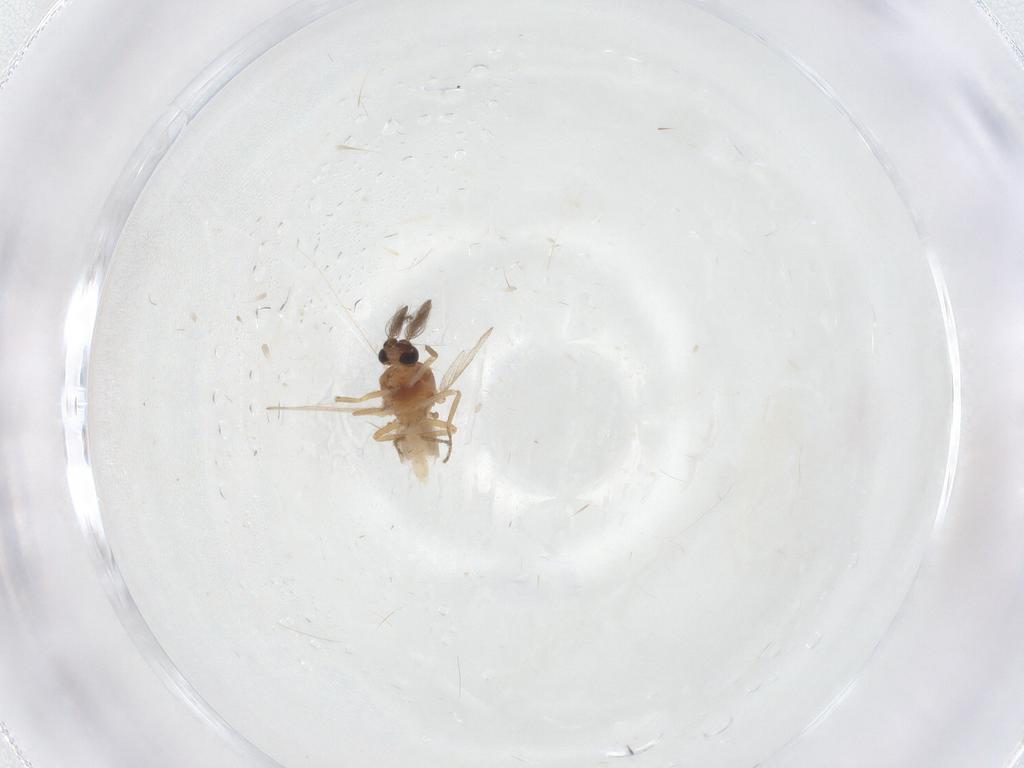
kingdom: Animalia
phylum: Arthropoda
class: Insecta
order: Diptera
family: Ceratopogonidae
